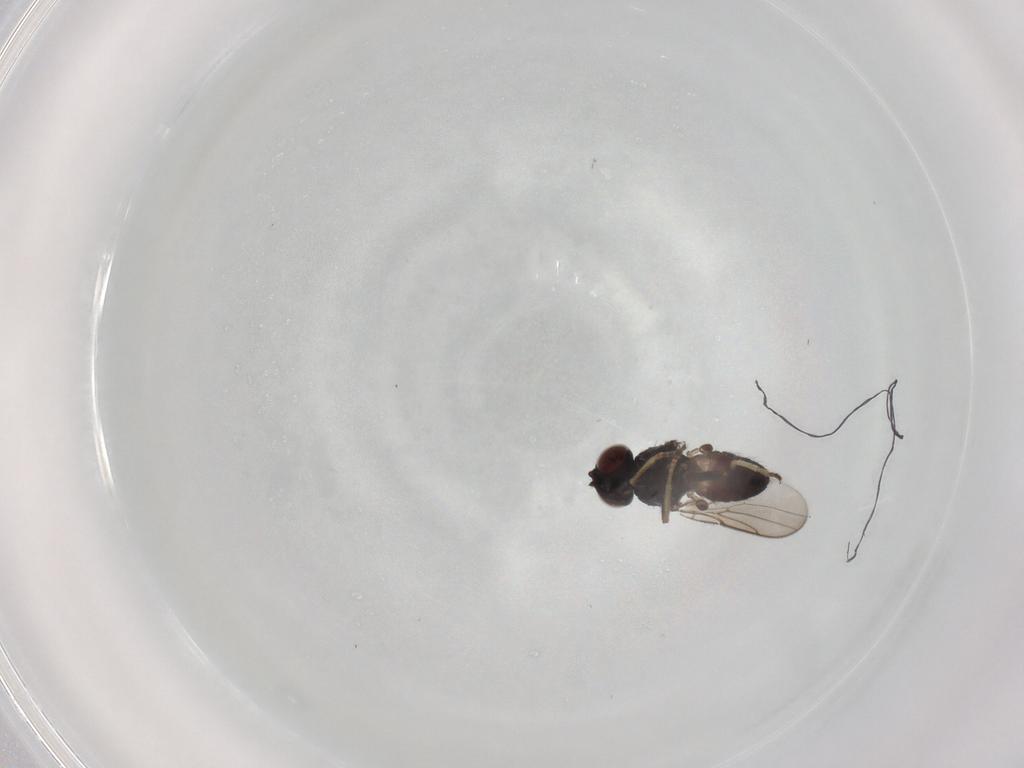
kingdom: Animalia
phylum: Arthropoda
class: Insecta
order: Diptera
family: Chloropidae
